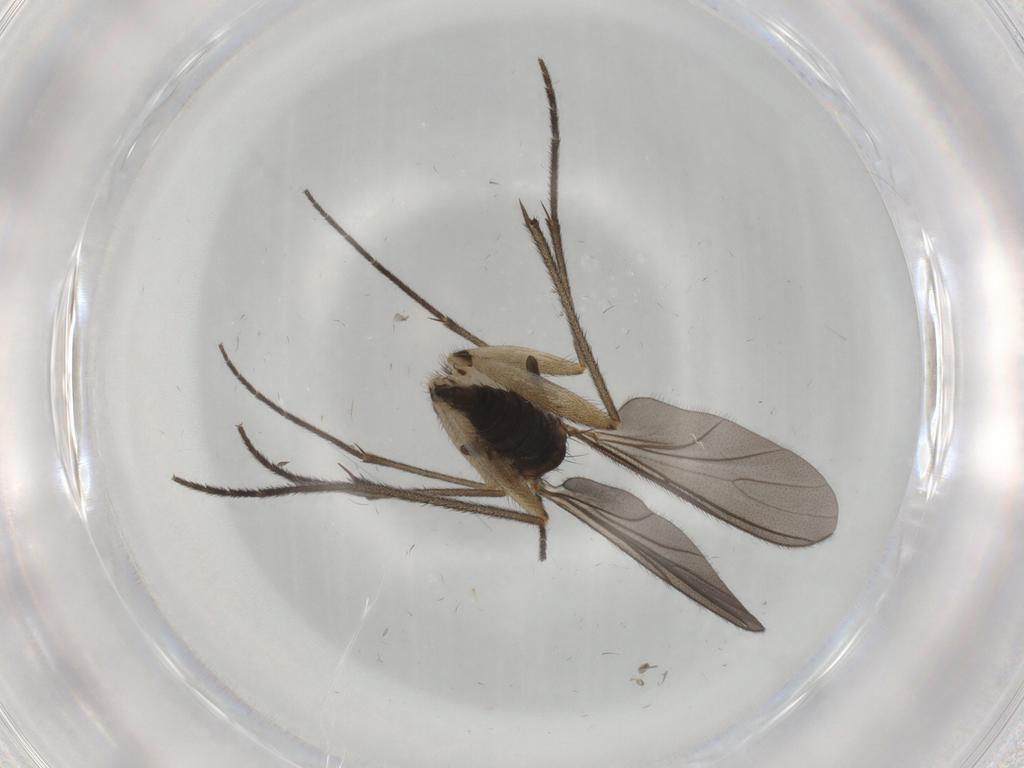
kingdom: Animalia
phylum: Arthropoda
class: Insecta
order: Diptera
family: Sciaridae
